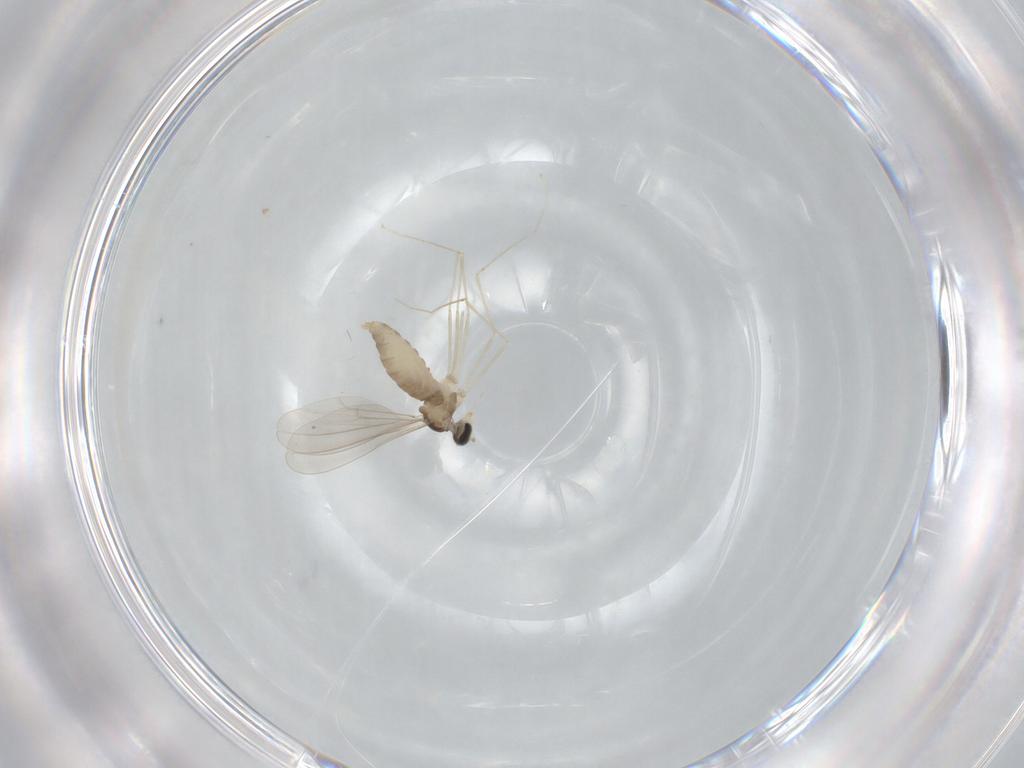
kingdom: Animalia
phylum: Arthropoda
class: Insecta
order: Diptera
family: Cecidomyiidae
